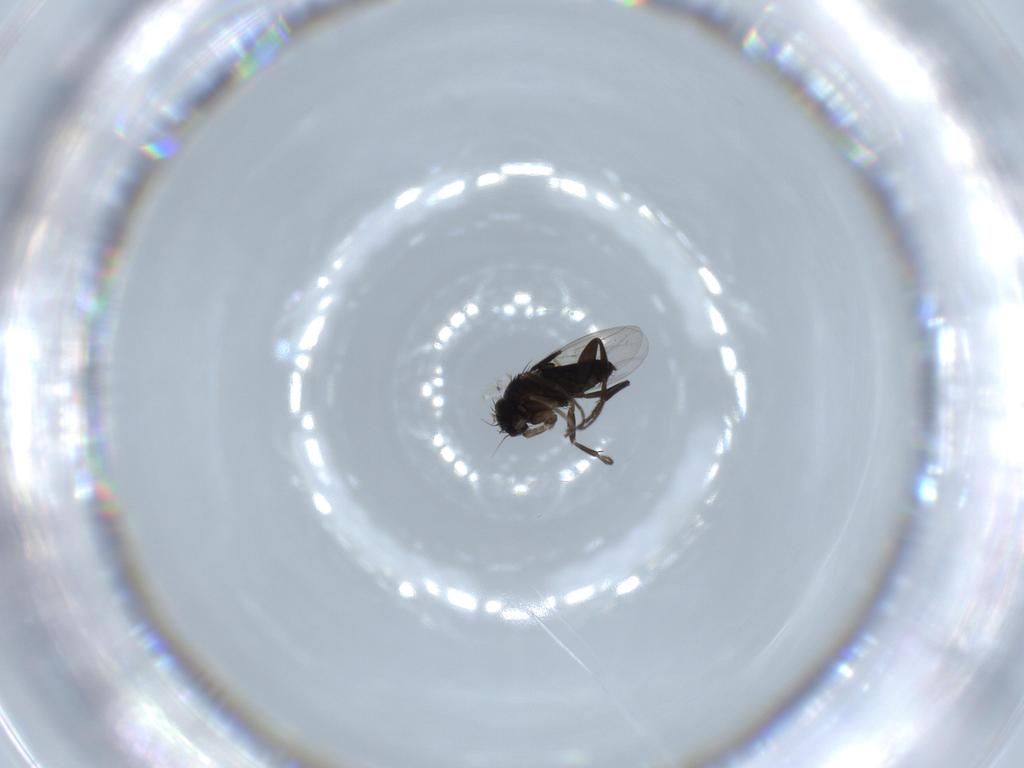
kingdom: Animalia
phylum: Arthropoda
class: Insecta
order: Diptera
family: Phoridae
